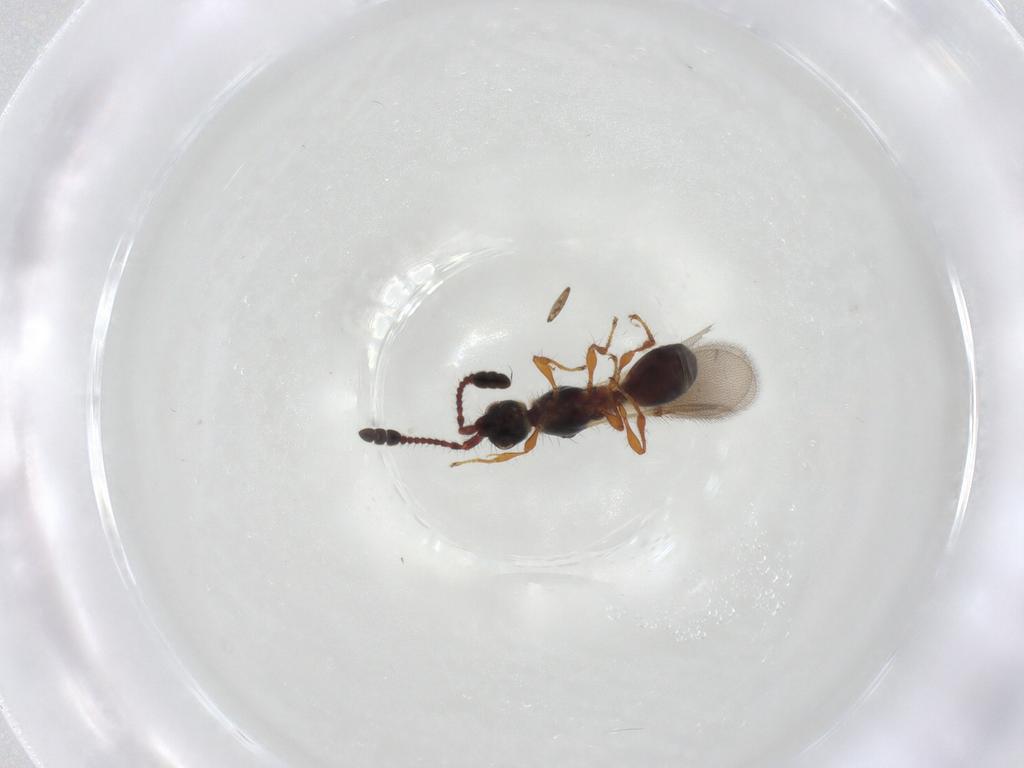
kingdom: Animalia
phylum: Arthropoda
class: Insecta
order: Hymenoptera
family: Diapriidae
